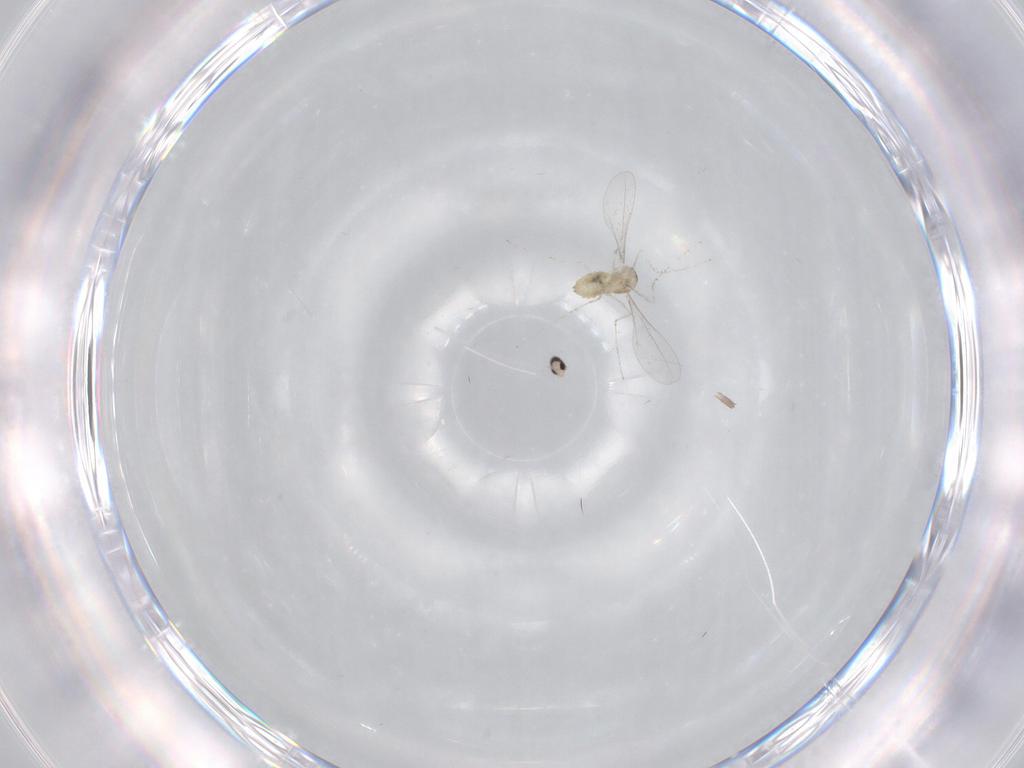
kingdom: Animalia
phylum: Arthropoda
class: Insecta
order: Diptera
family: Cecidomyiidae
